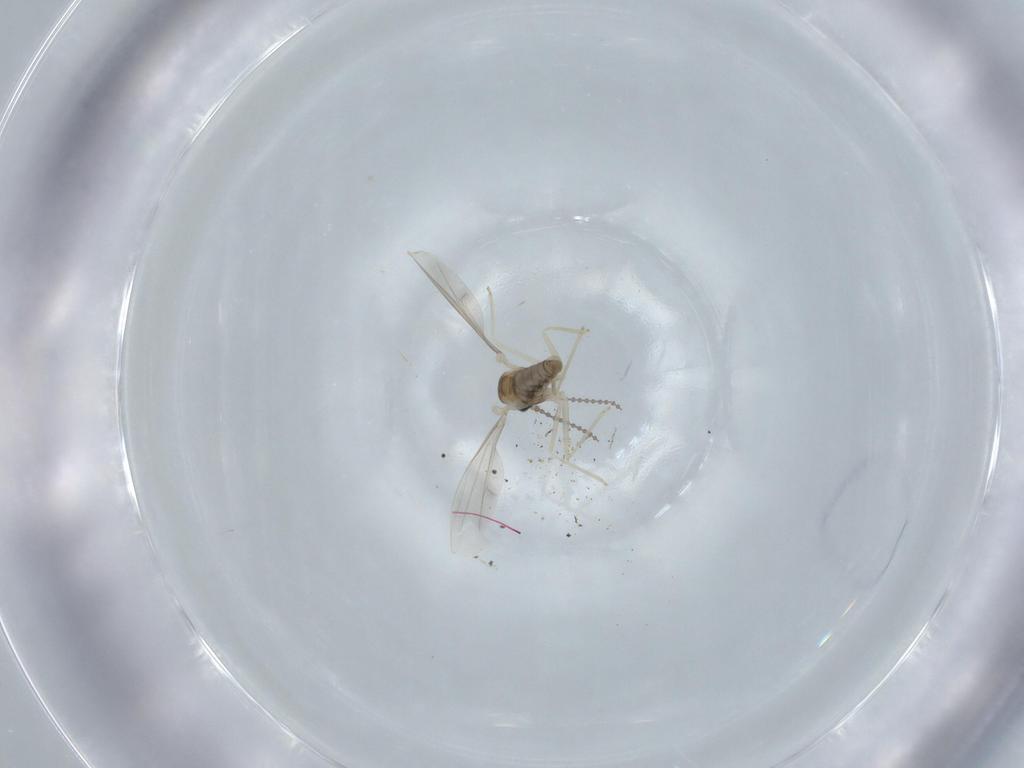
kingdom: Animalia
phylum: Arthropoda
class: Insecta
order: Diptera
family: Cecidomyiidae
